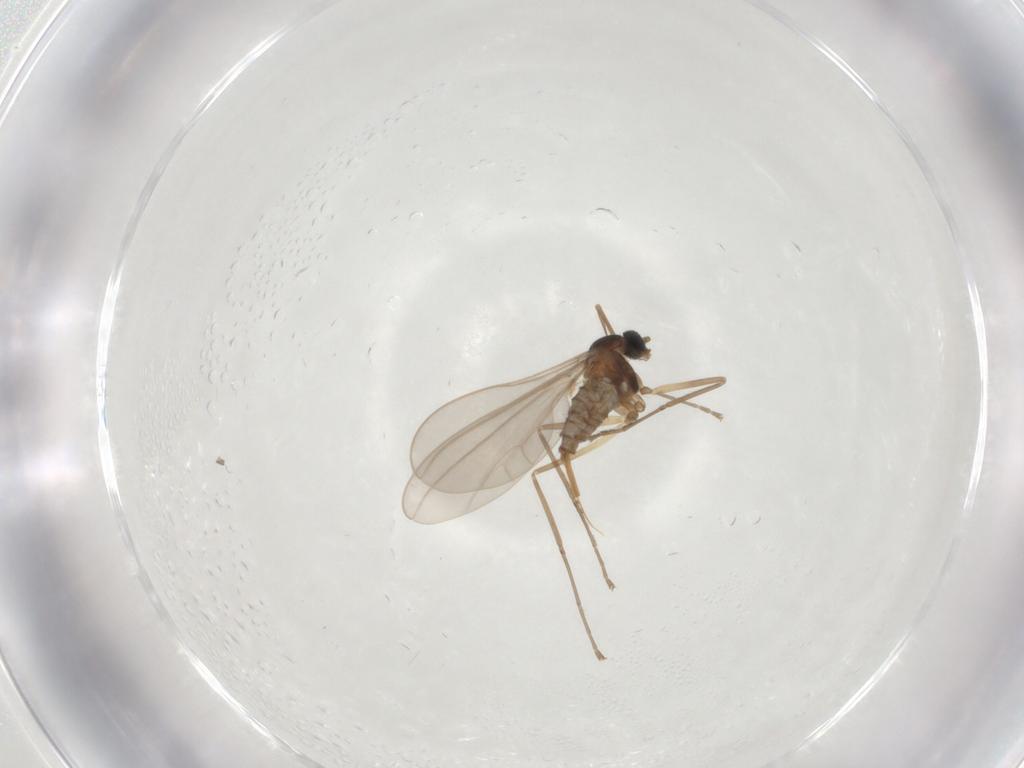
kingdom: Animalia
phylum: Arthropoda
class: Insecta
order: Diptera
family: Cecidomyiidae
